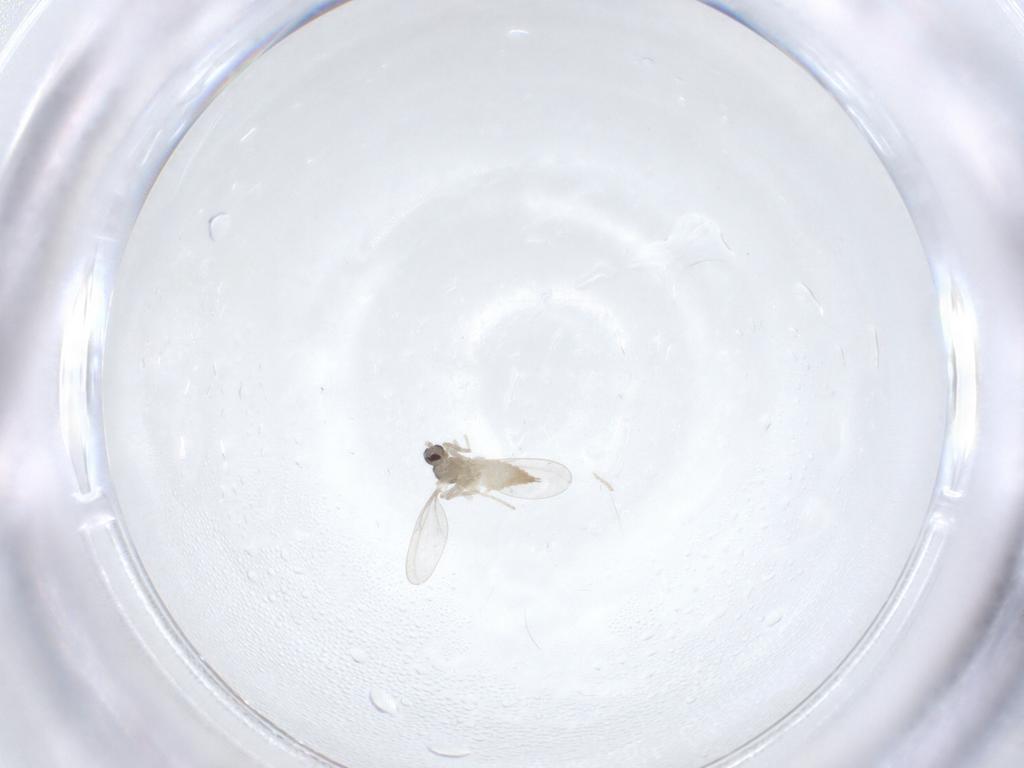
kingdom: Animalia
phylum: Arthropoda
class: Insecta
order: Diptera
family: Cecidomyiidae
